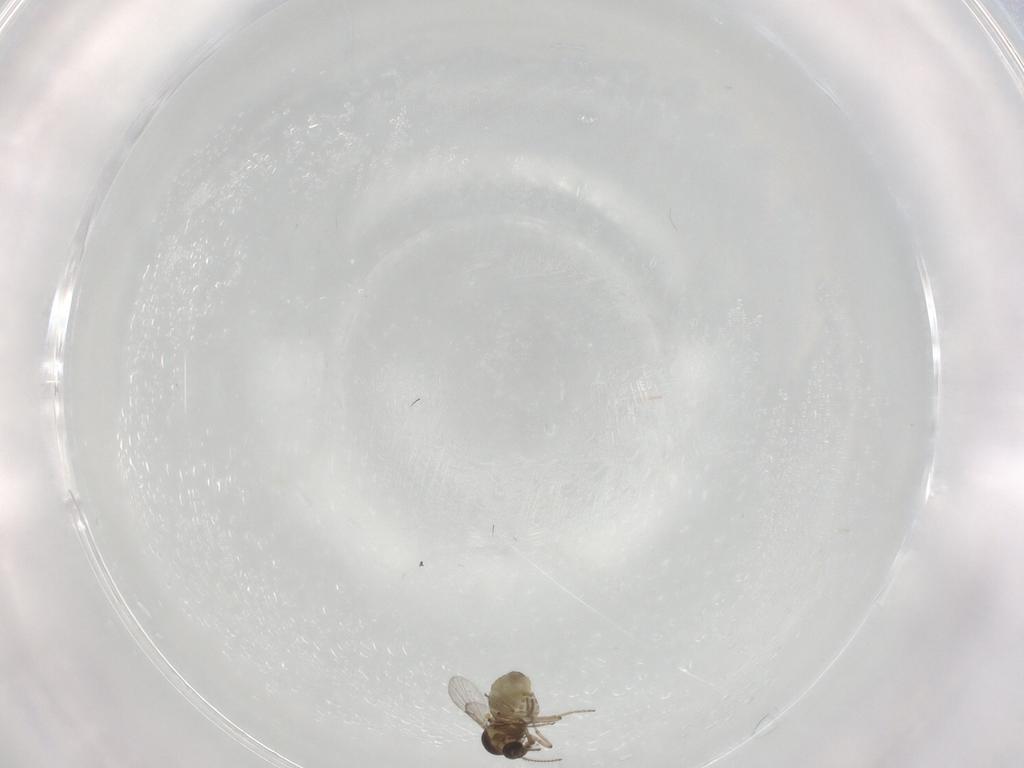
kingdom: Animalia
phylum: Arthropoda
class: Insecta
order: Diptera
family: Ceratopogonidae
